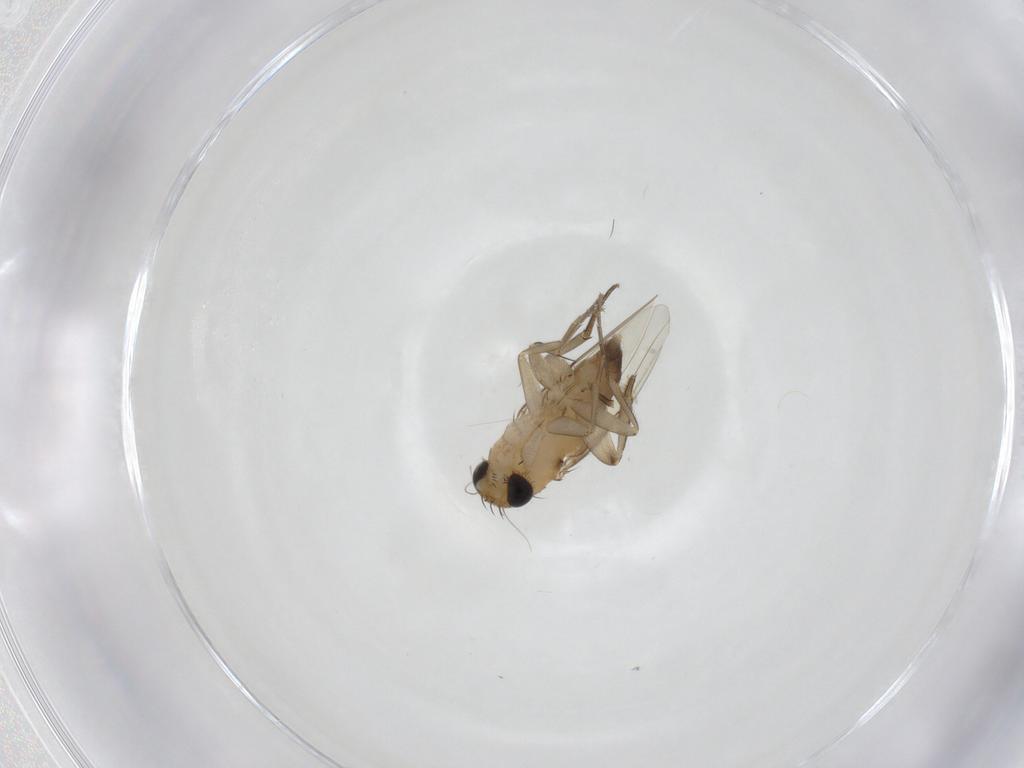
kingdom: Animalia
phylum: Arthropoda
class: Insecta
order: Diptera
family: Phoridae
